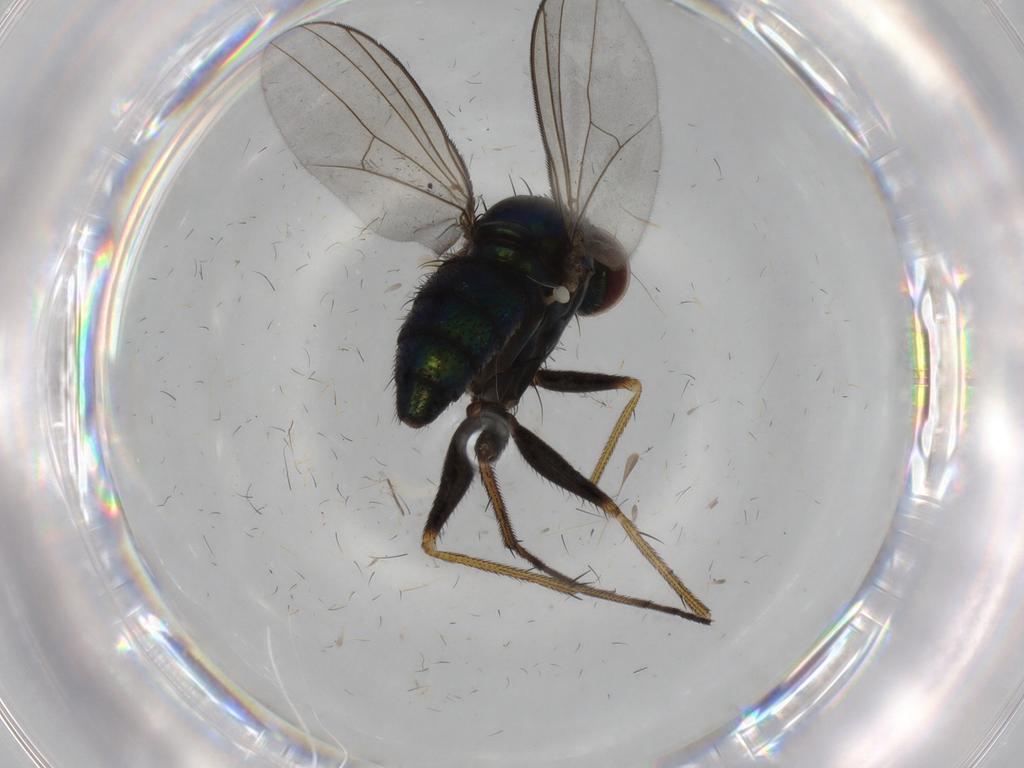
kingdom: Animalia
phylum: Arthropoda
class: Insecta
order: Diptera
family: Dolichopodidae
